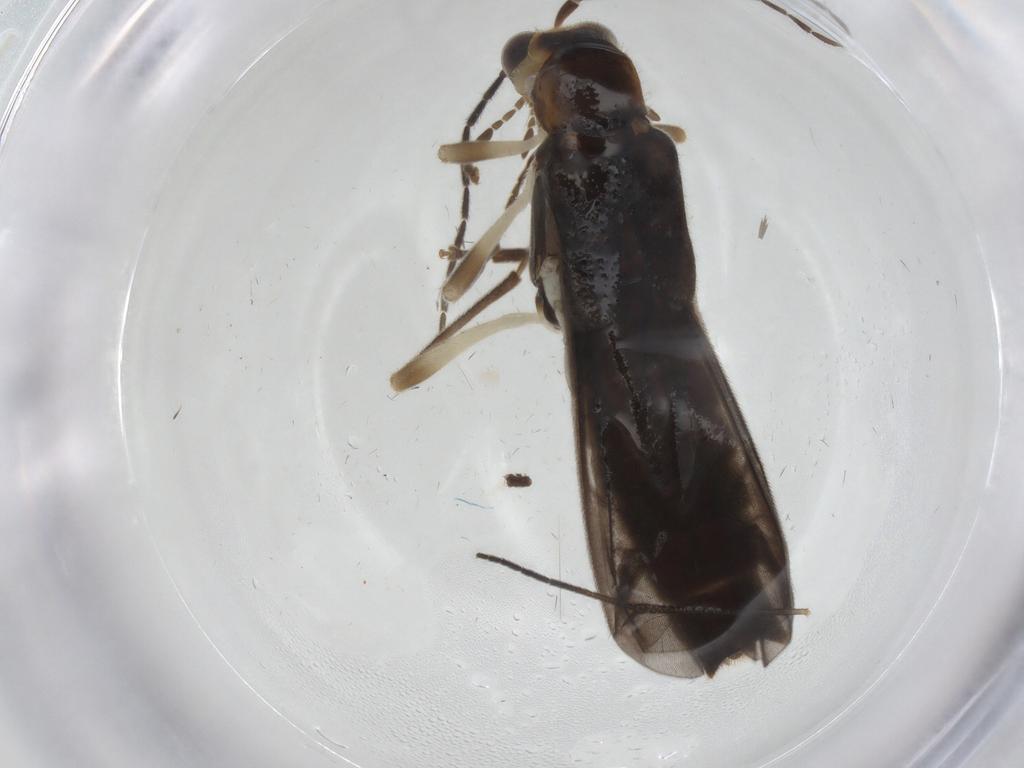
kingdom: Animalia
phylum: Arthropoda
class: Insecta
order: Coleoptera
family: Cantharidae
